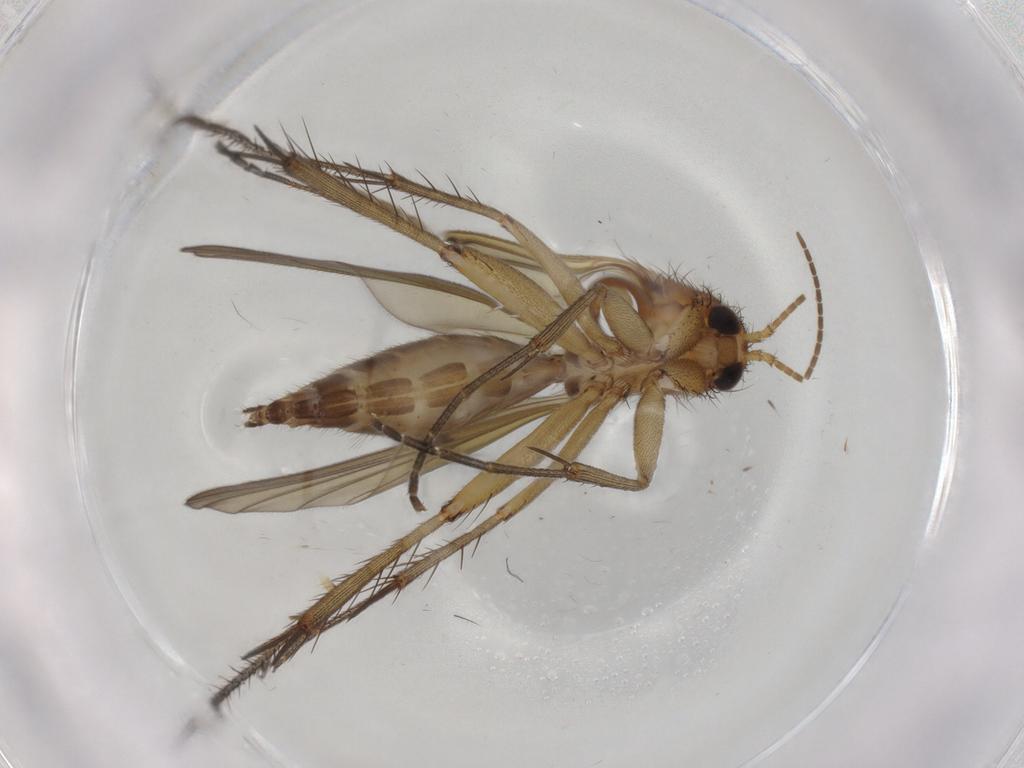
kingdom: Animalia
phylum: Arthropoda
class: Insecta
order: Diptera
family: Mycetophilidae
